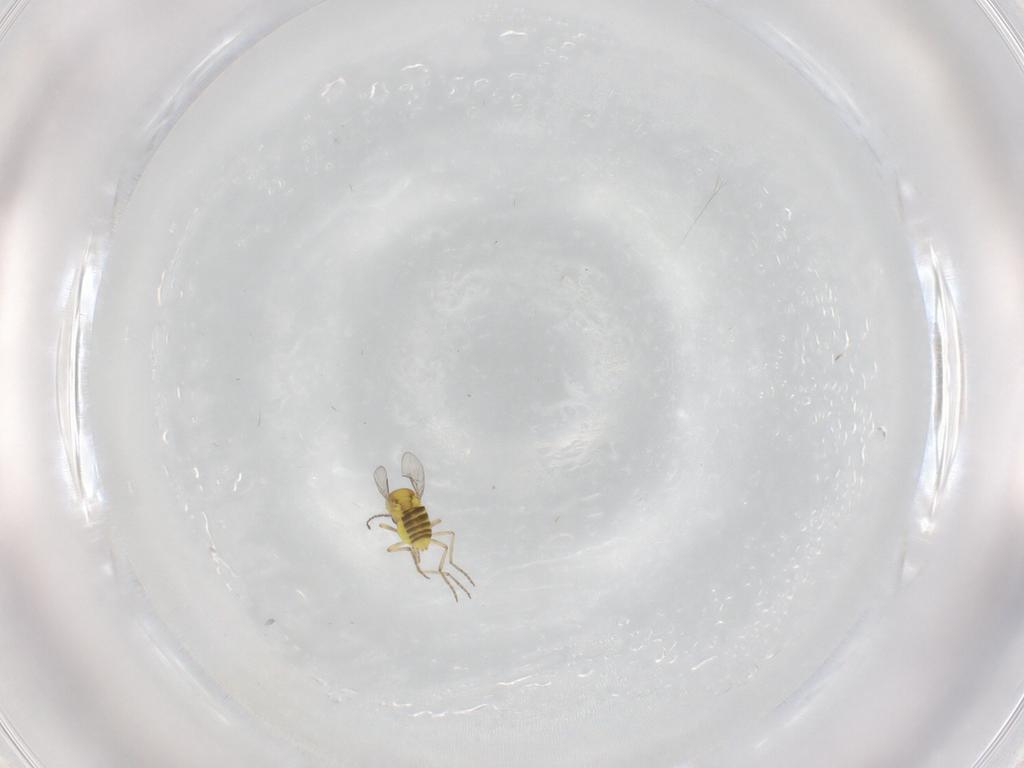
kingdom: Animalia
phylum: Arthropoda
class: Insecta
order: Diptera
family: Ceratopogonidae
